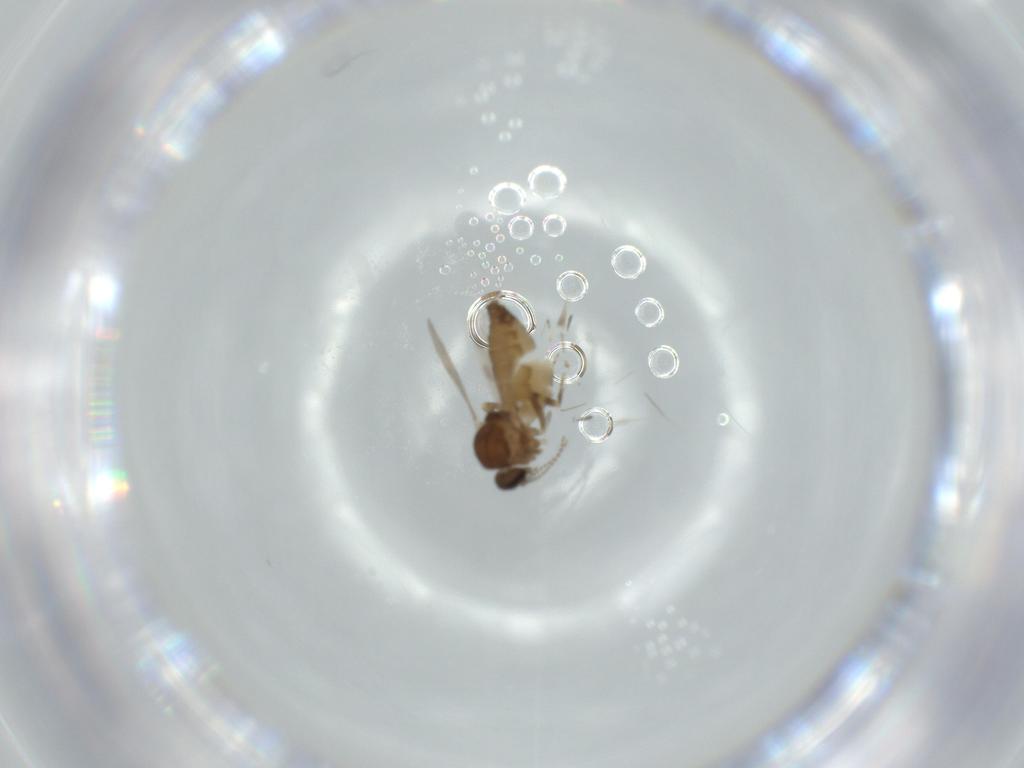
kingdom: Animalia
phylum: Arthropoda
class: Insecta
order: Diptera
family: Ceratopogonidae
